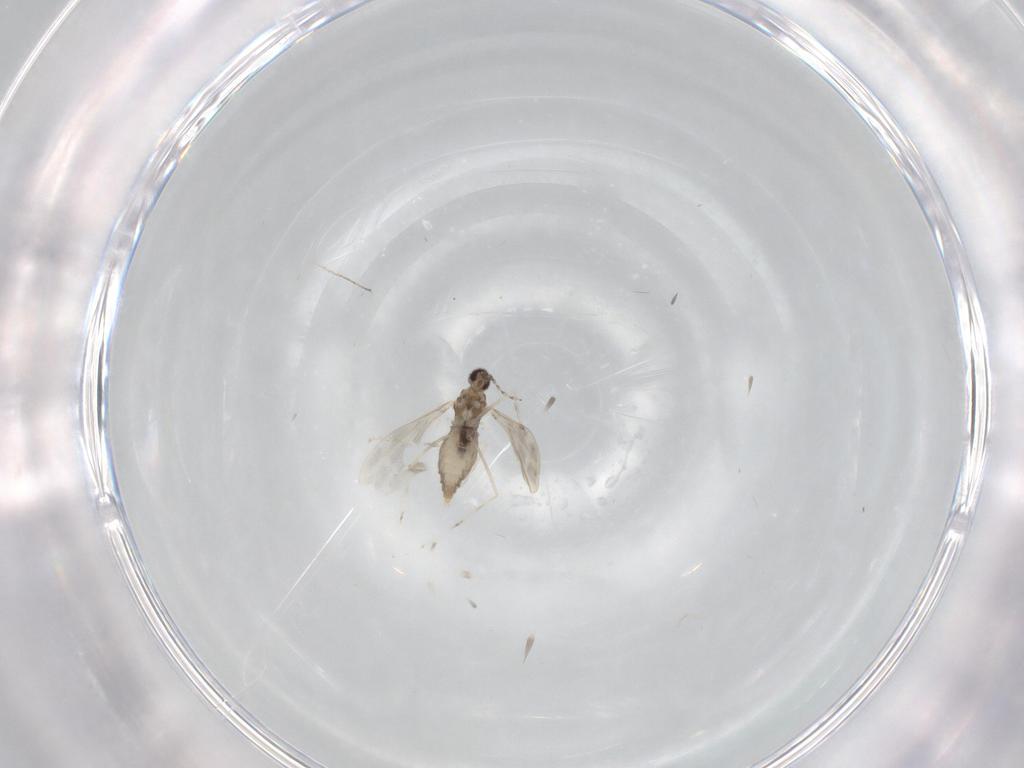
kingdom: Animalia
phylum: Arthropoda
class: Insecta
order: Diptera
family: Cecidomyiidae
